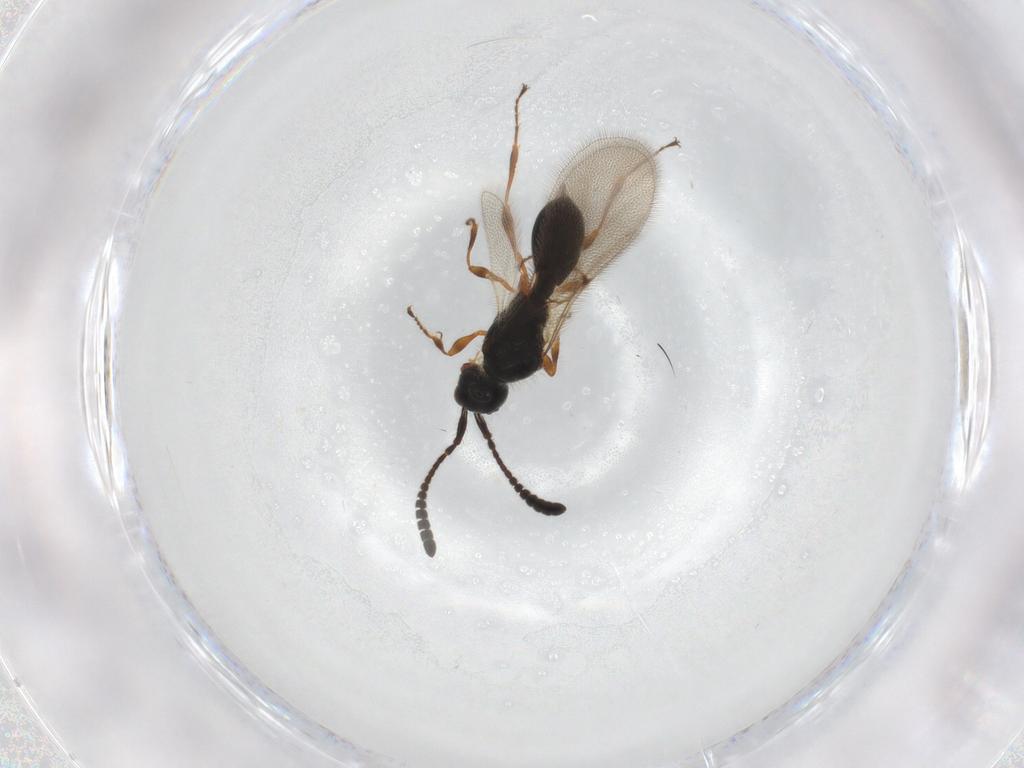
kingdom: Animalia
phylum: Arthropoda
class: Insecta
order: Hymenoptera
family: Diapriidae
